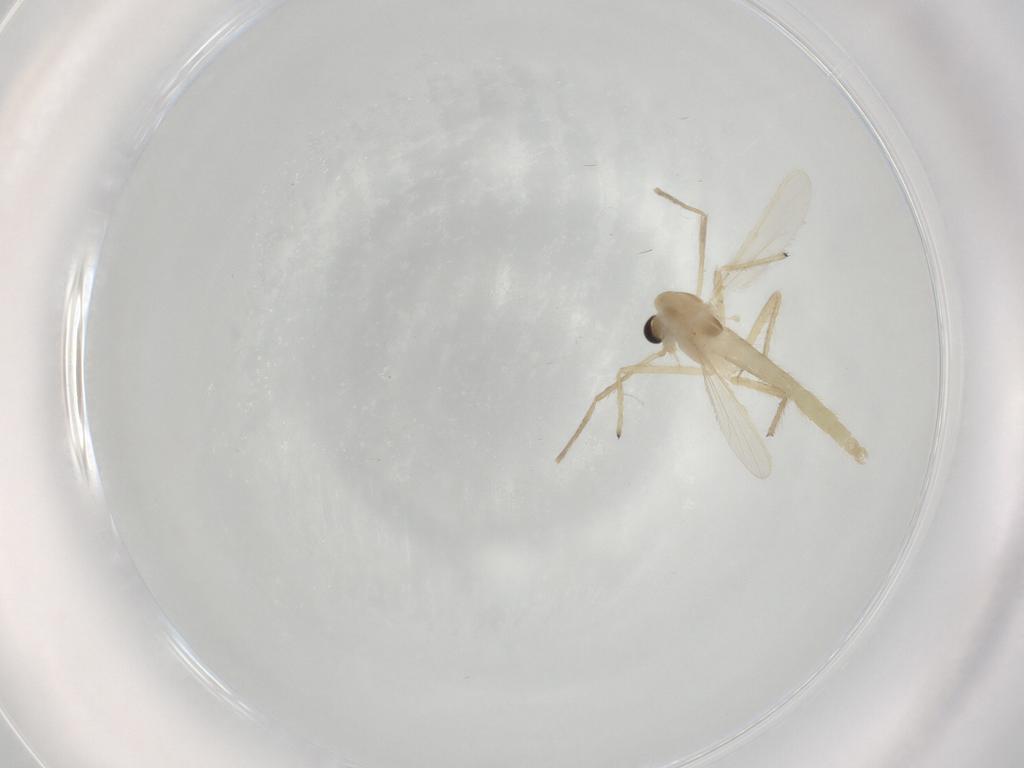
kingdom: Animalia
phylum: Arthropoda
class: Insecta
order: Diptera
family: Chironomidae
